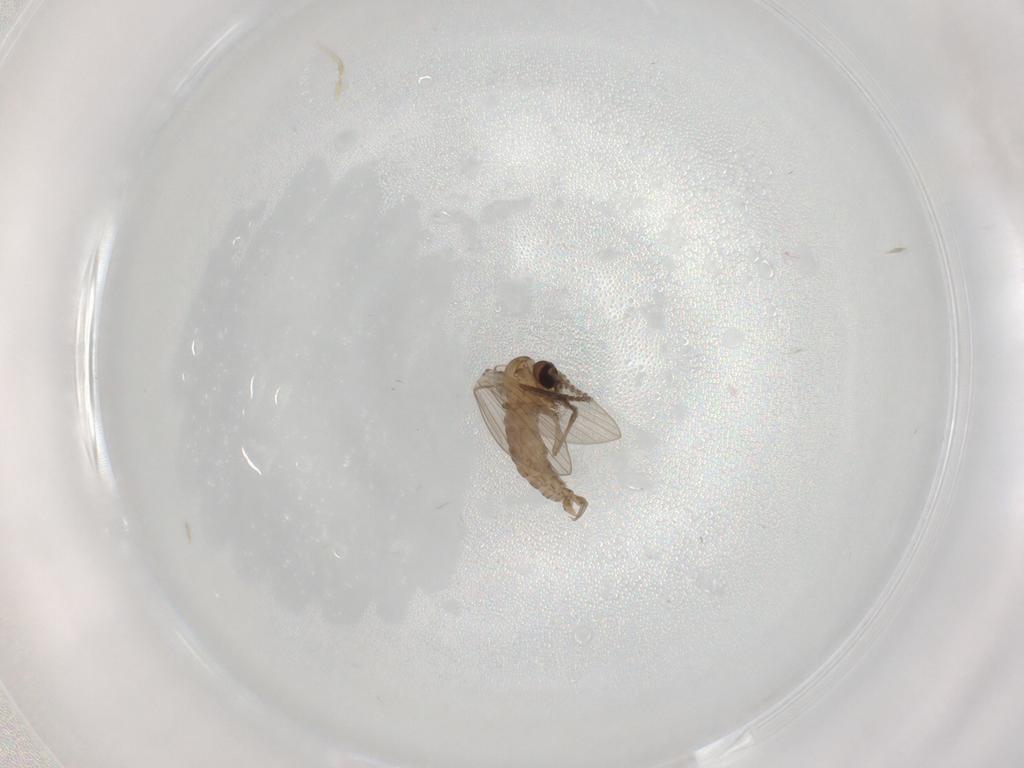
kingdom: Animalia
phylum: Arthropoda
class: Insecta
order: Diptera
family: Psychodidae
